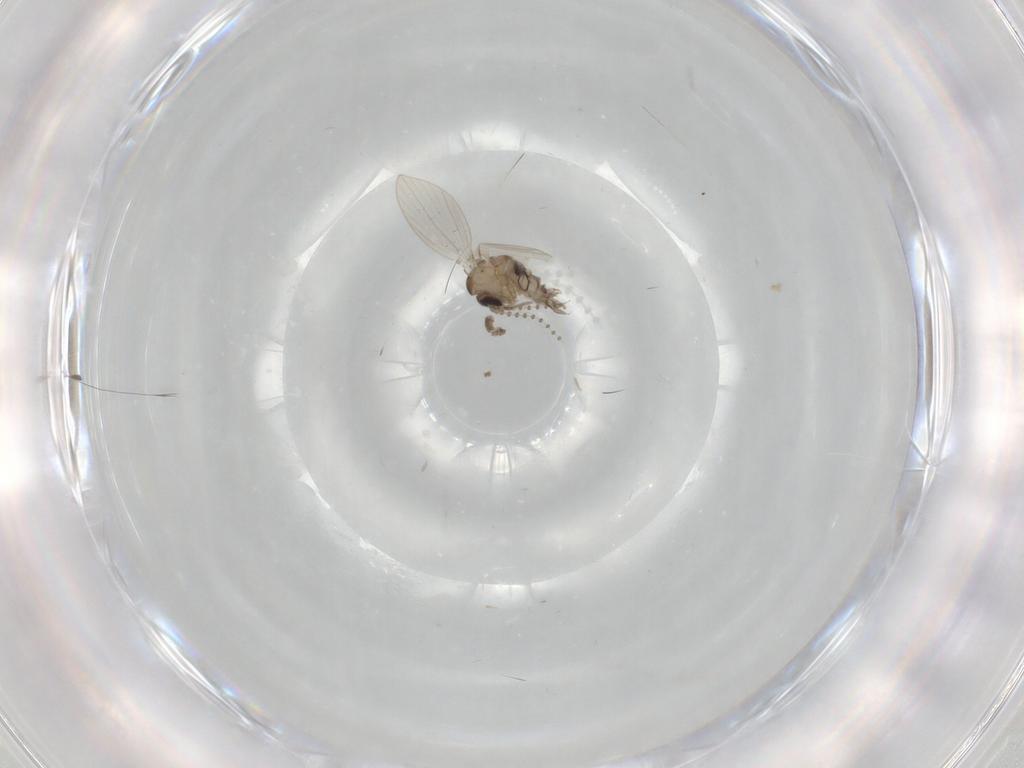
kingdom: Animalia
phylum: Arthropoda
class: Insecta
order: Diptera
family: Psychodidae
